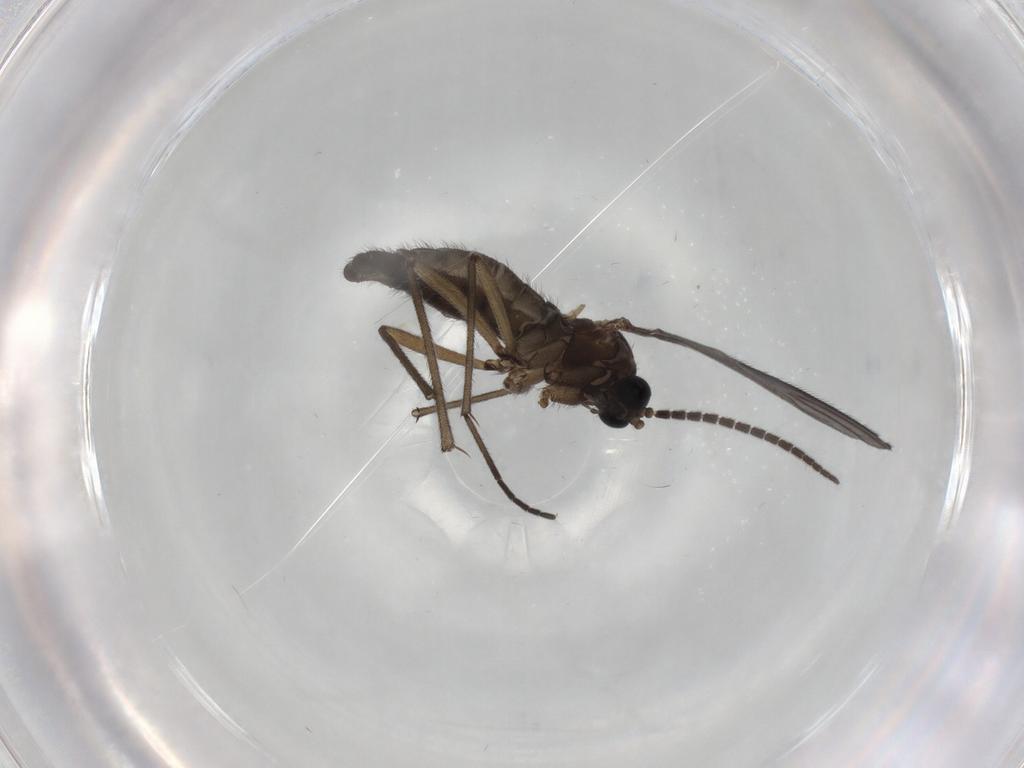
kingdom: Animalia
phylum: Arthropoda
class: Insecta
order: Diptera
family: Sciaridae
